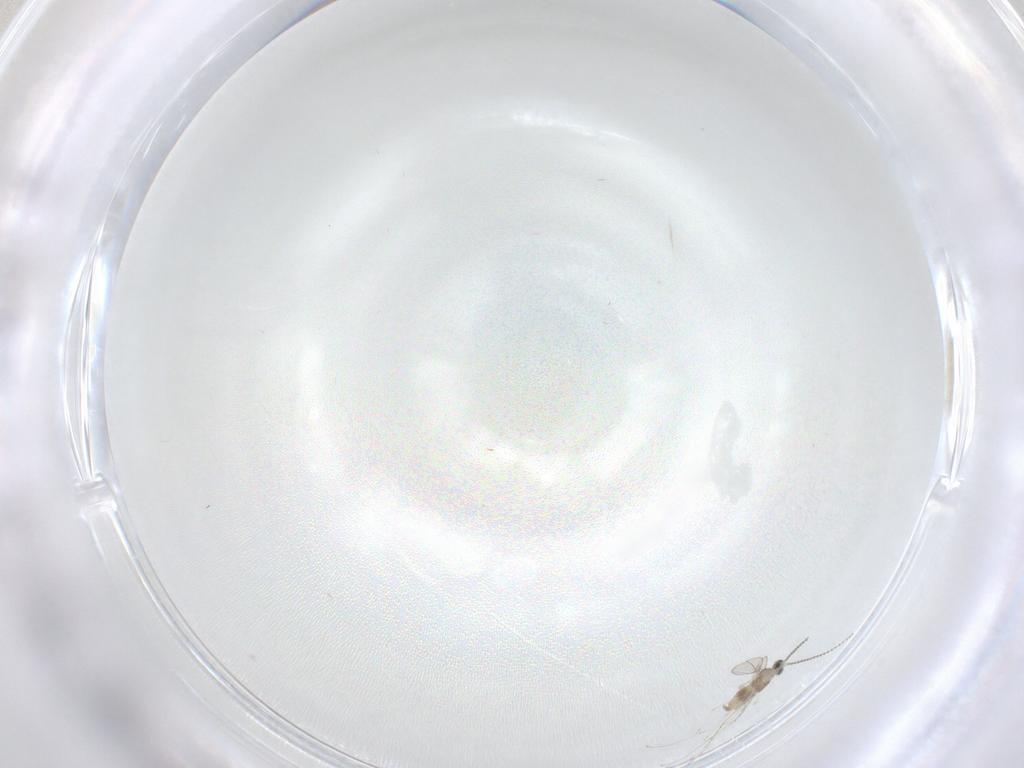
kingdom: Animalia
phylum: Arthropoda
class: Insecta
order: Diptera
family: Cecidomyiidae
